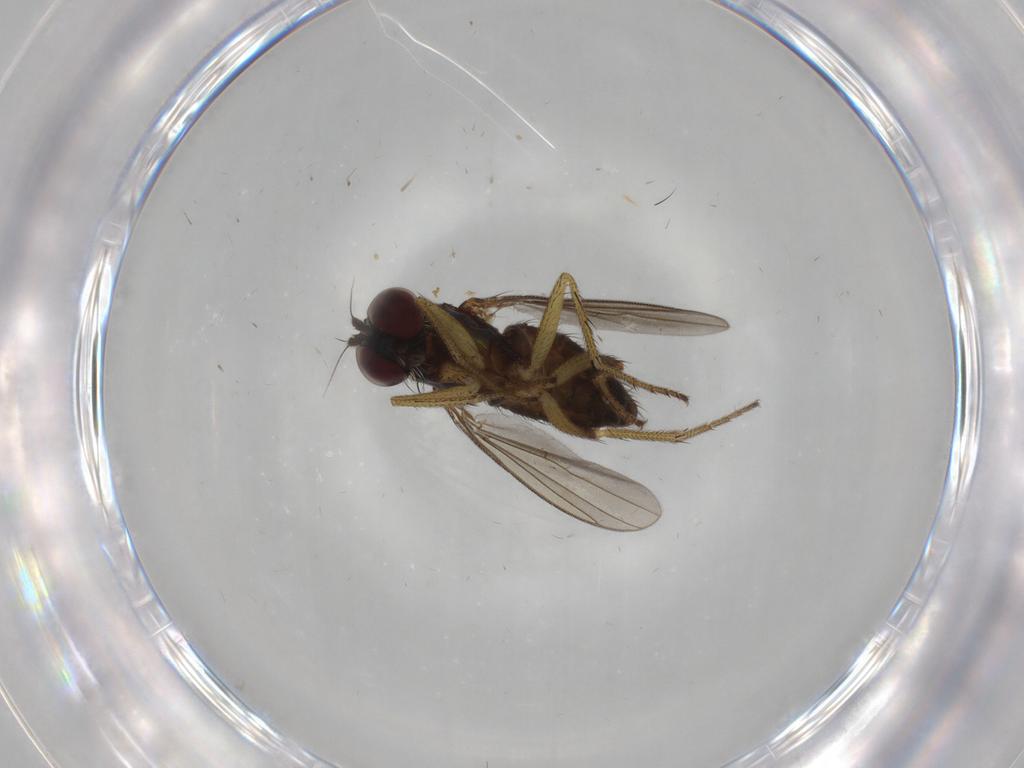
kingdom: Animalia
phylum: Arthropoda
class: Insecta
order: Diptera
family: Dolichopodidae
